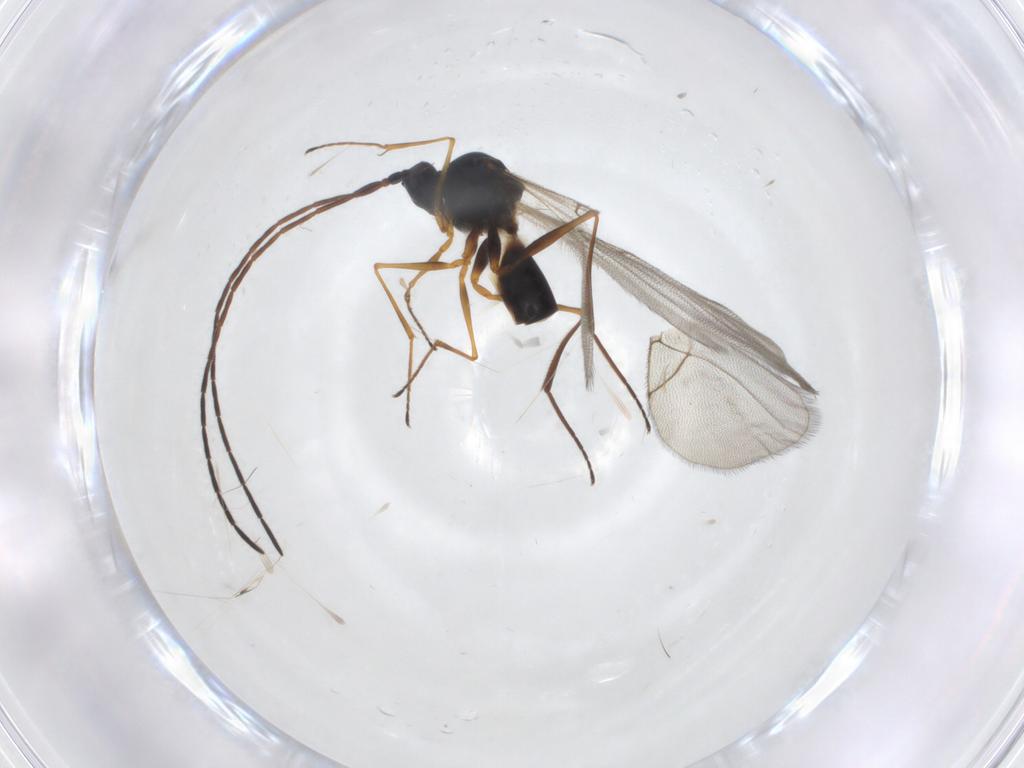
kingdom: Animalia
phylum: Arthropoda
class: Insecta
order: Hymenoptera
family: Figitidae
